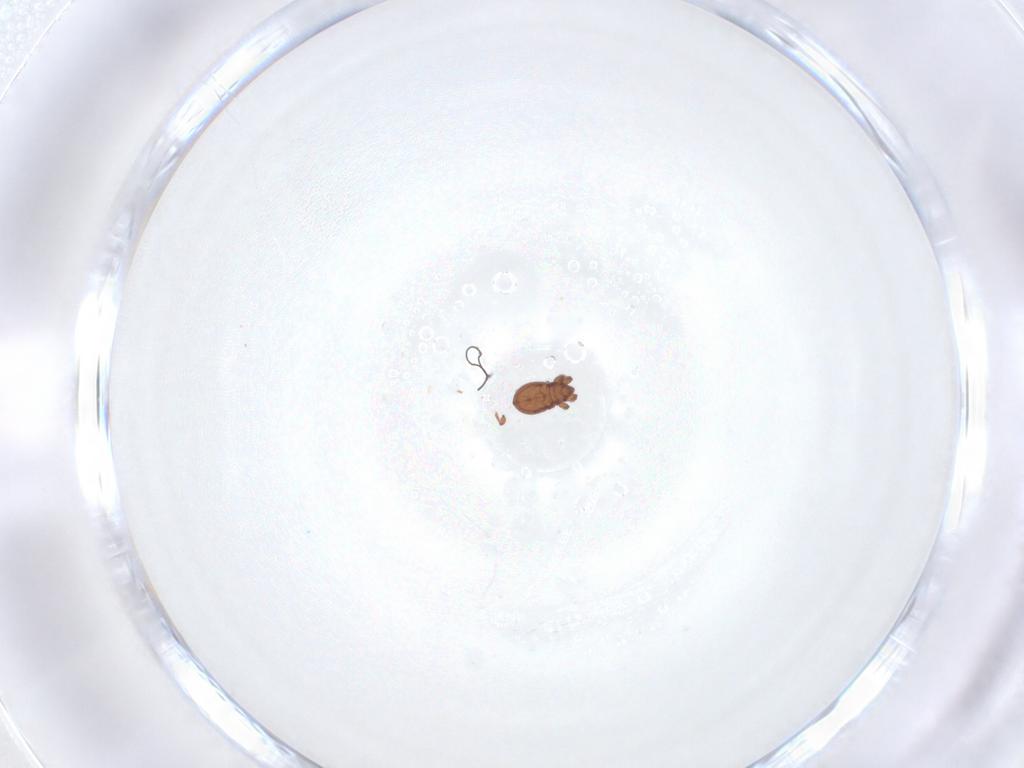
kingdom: Animalia
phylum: Arthropoda
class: Arachnida
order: Sarcoptiformes
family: Eremaeidae
